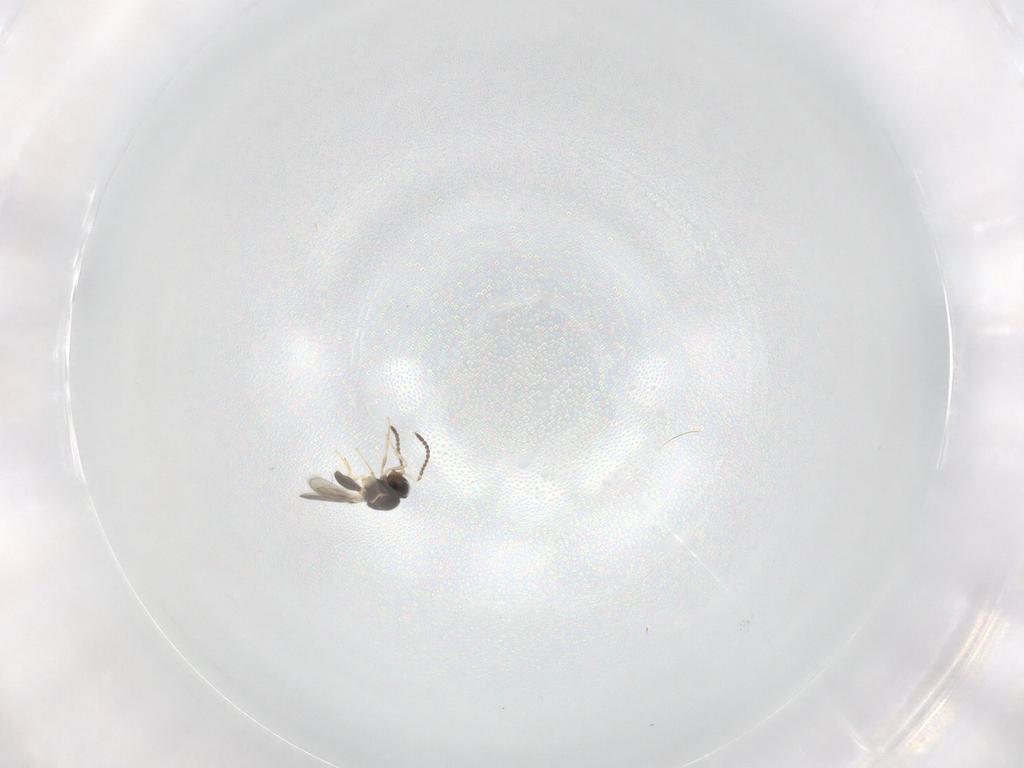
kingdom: Animalia
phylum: Arthropoda
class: Insecta
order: Hymenoptera
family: Scelionidae
